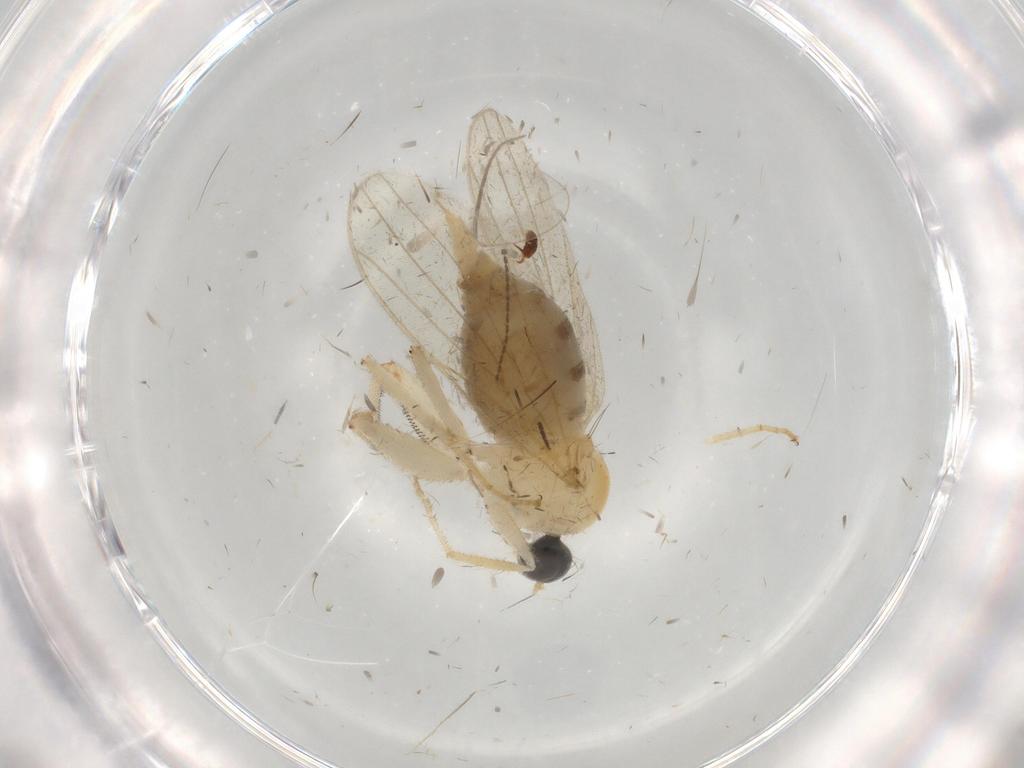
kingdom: Animalia
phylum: Arthropoda
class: Insecta
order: Diptera
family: Hybotidae
